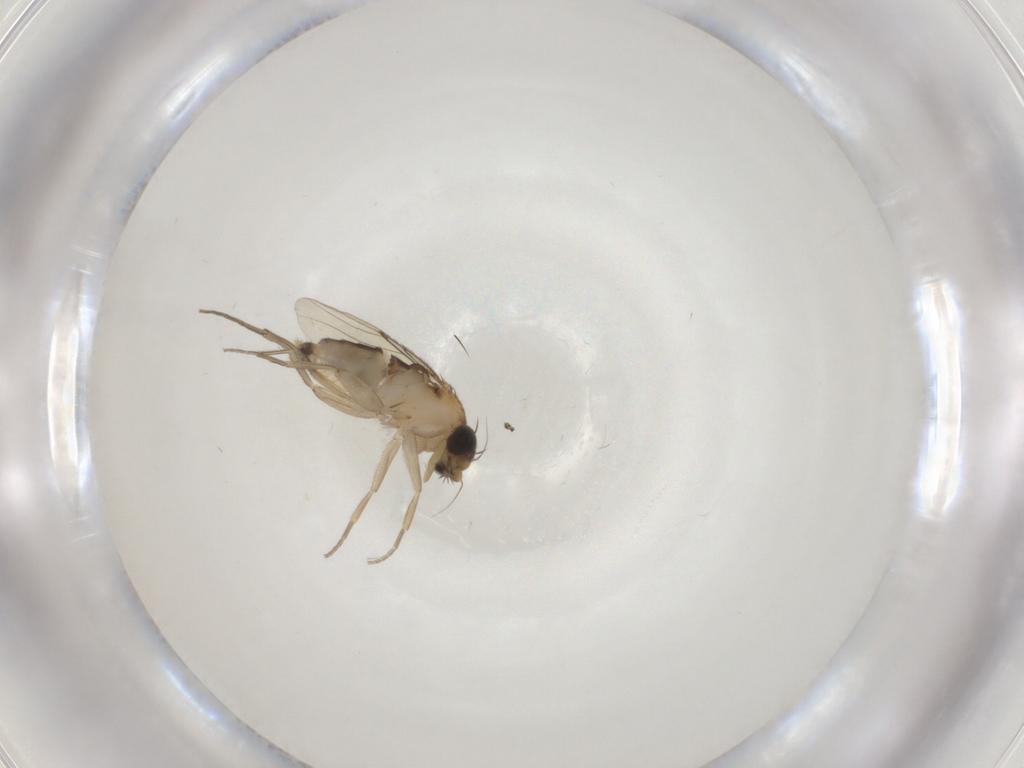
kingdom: Animalia
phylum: Arthropoda
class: Insecta
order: Diptera
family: Phoridae
